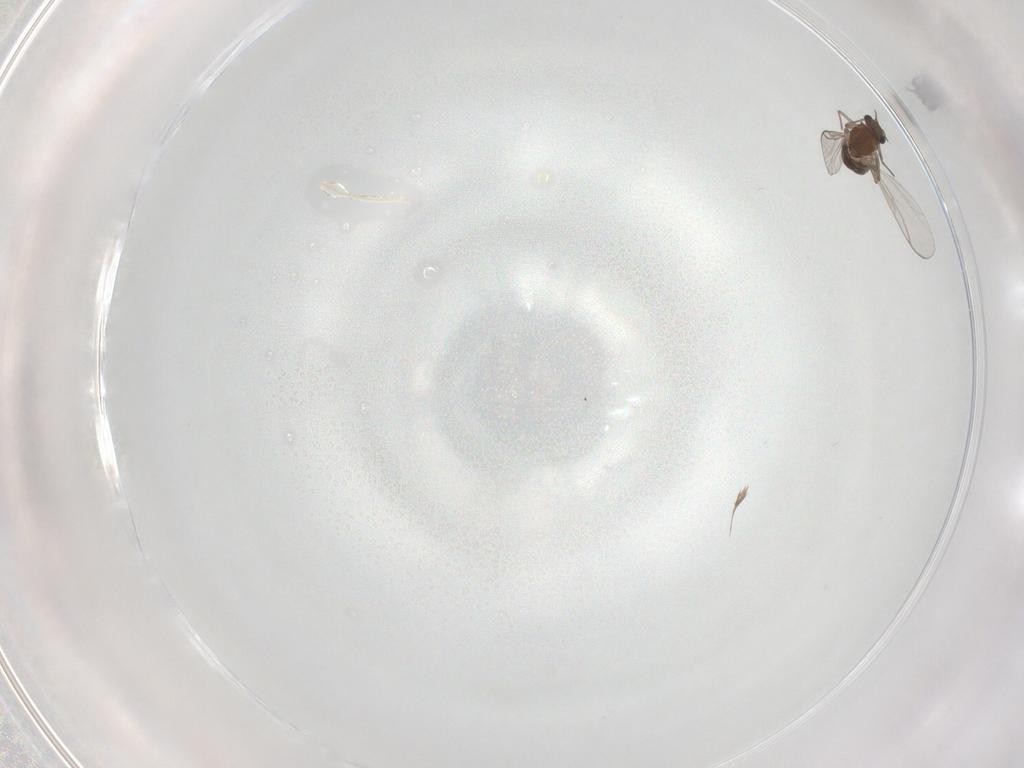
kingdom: Animalia
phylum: Arthropoda
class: Insecta
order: Diptera
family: Chironomidae
